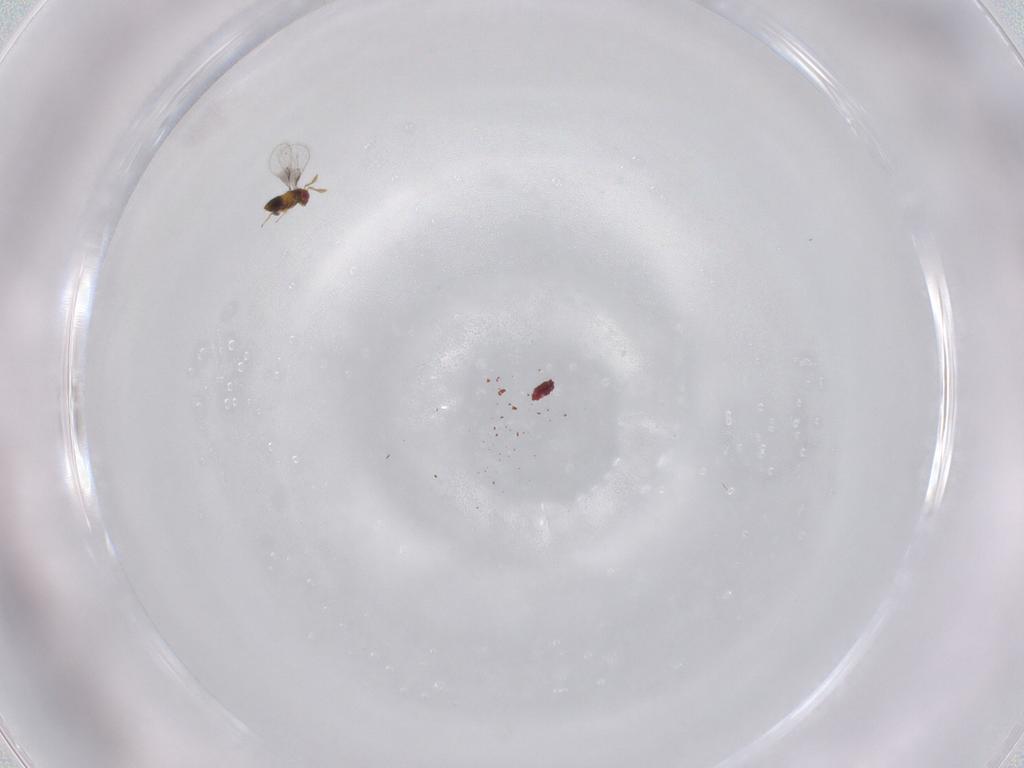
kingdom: Animalia
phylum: Arthropoda
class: Insecta
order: Hymenoptera
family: Trichogrammatidae
